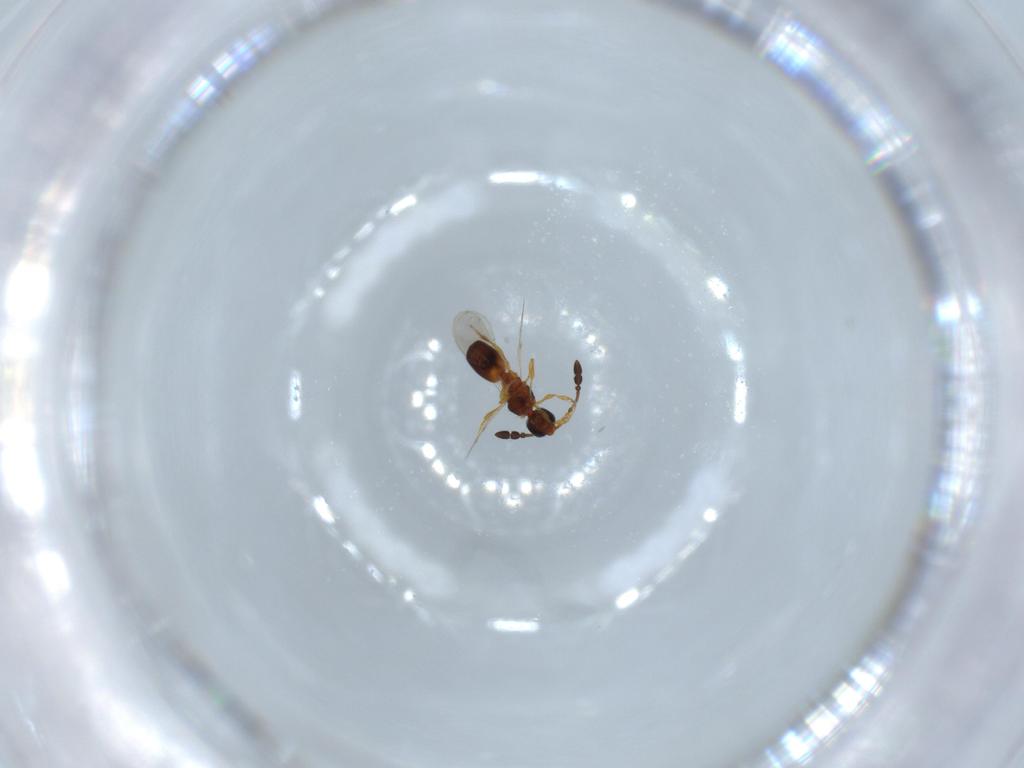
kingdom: Animalia
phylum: Arthropoda
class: Insecta
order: Hymenoptera
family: Diapriidae
